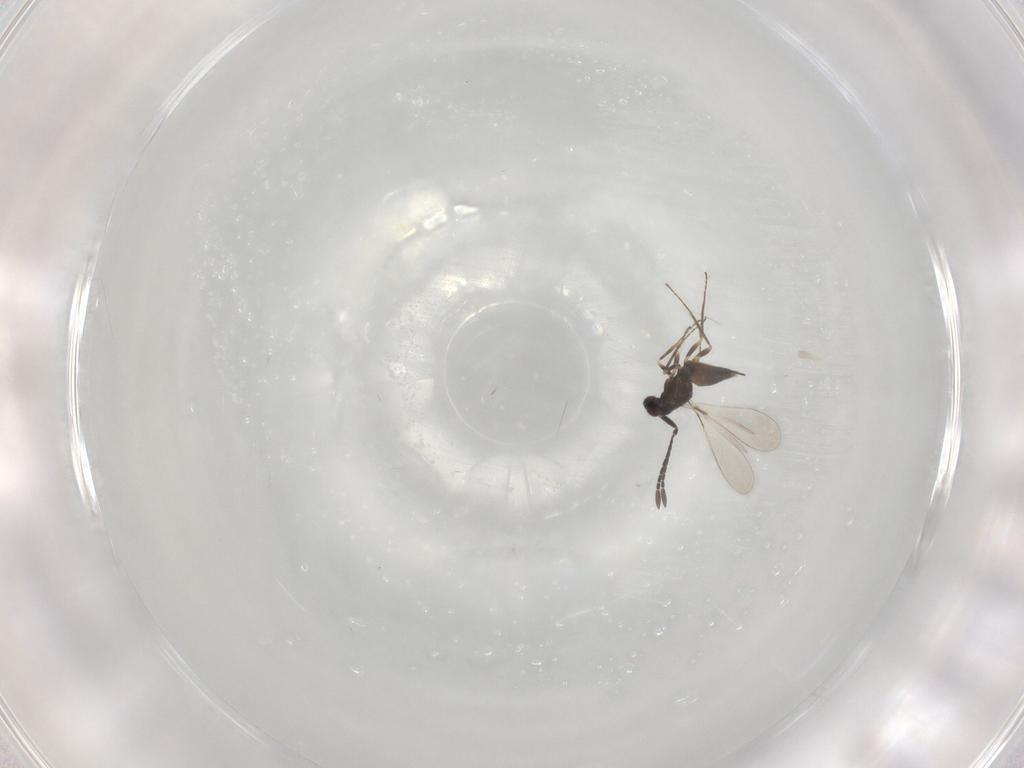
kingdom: Animalia
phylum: Arthropoda
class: Insecta
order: Hymenoptera
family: Mymaridae
